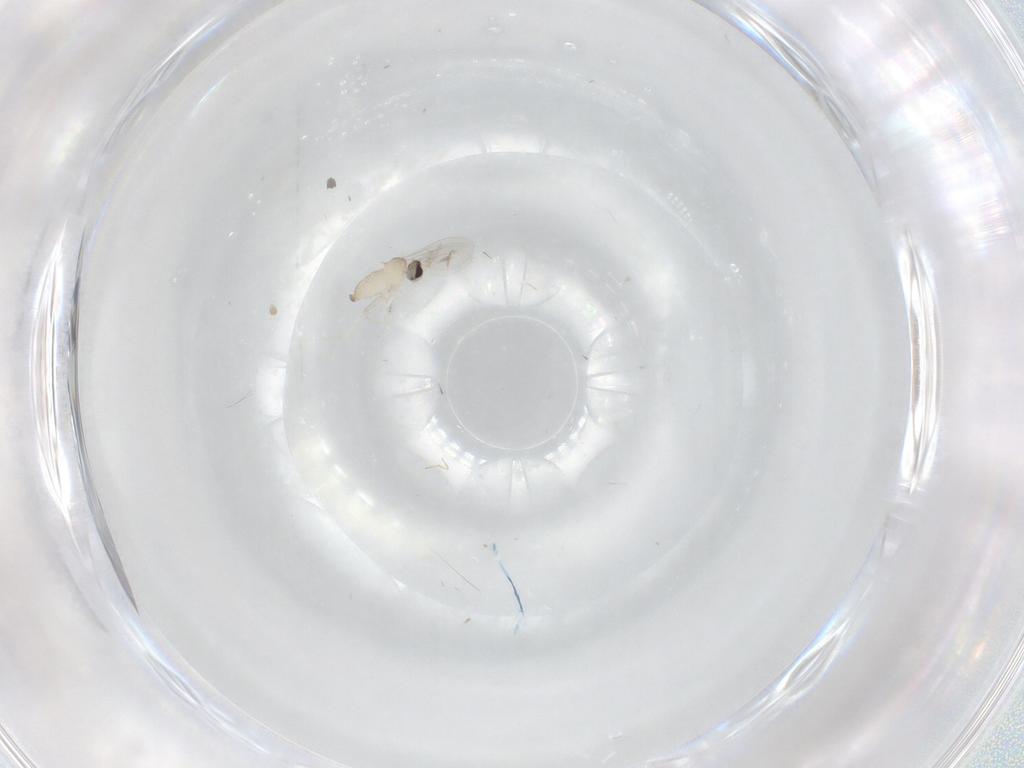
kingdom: Animalia
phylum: Arthropoda
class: Insecta
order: Diptera
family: Cecidomyiidae
